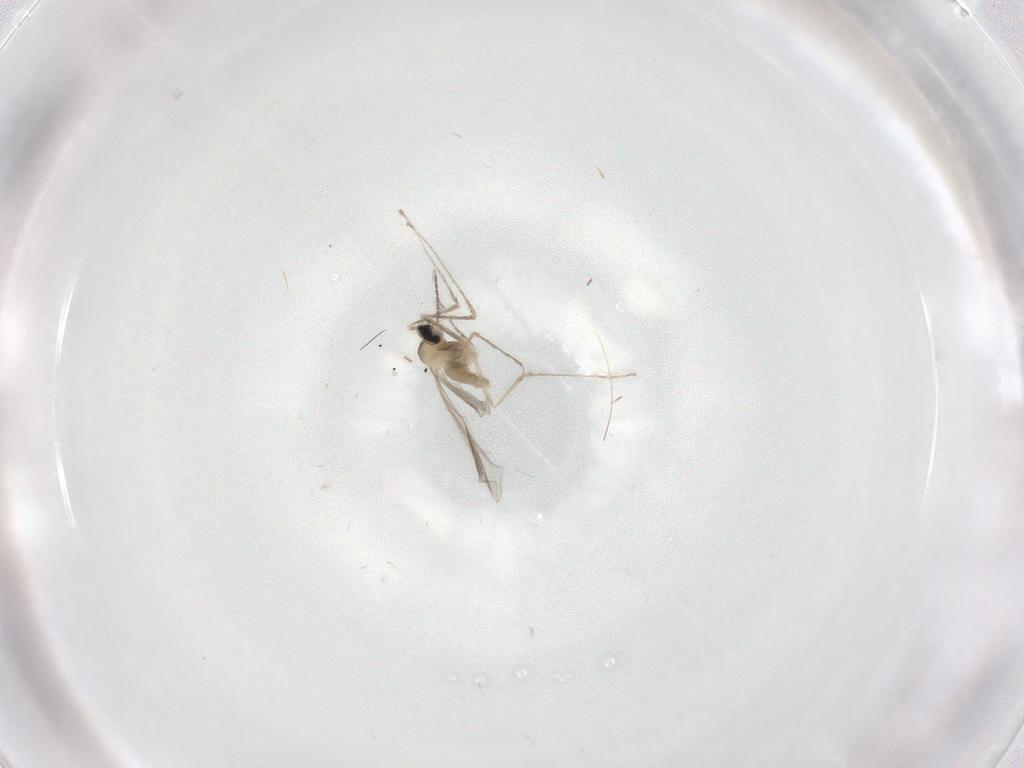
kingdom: Animalia
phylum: Arthropoda
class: Insecta
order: Diptera
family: Cecidomyiidae
